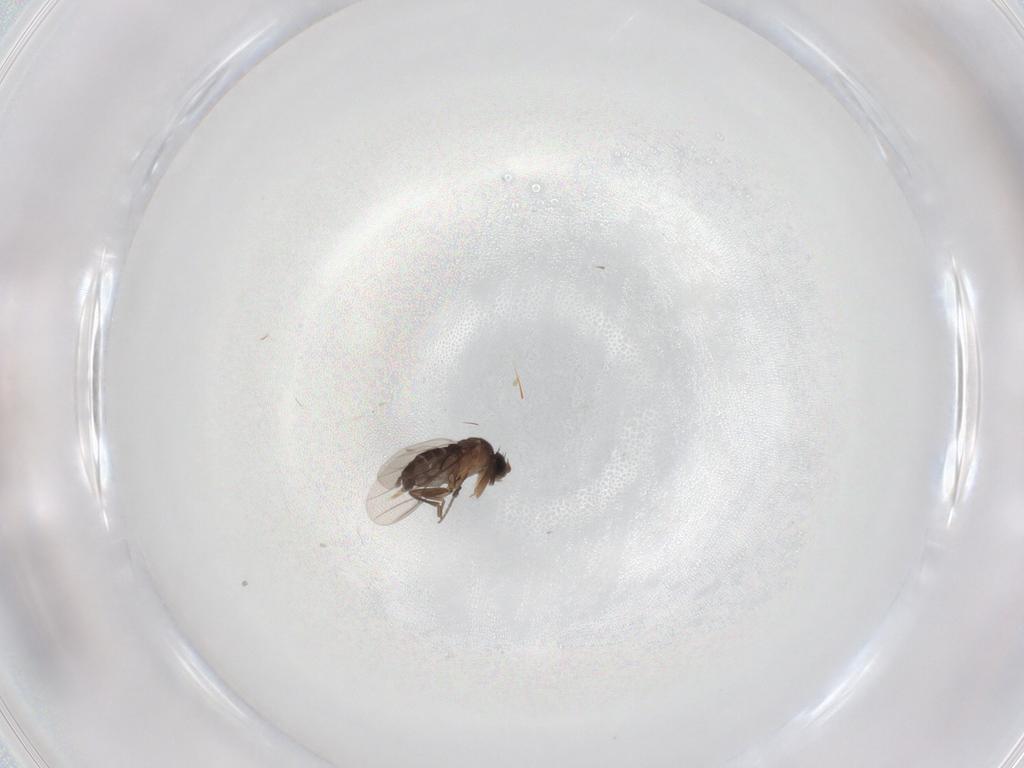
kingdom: Animalia
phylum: Arthropoda
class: Insecta
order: Diptera
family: Phoridae
